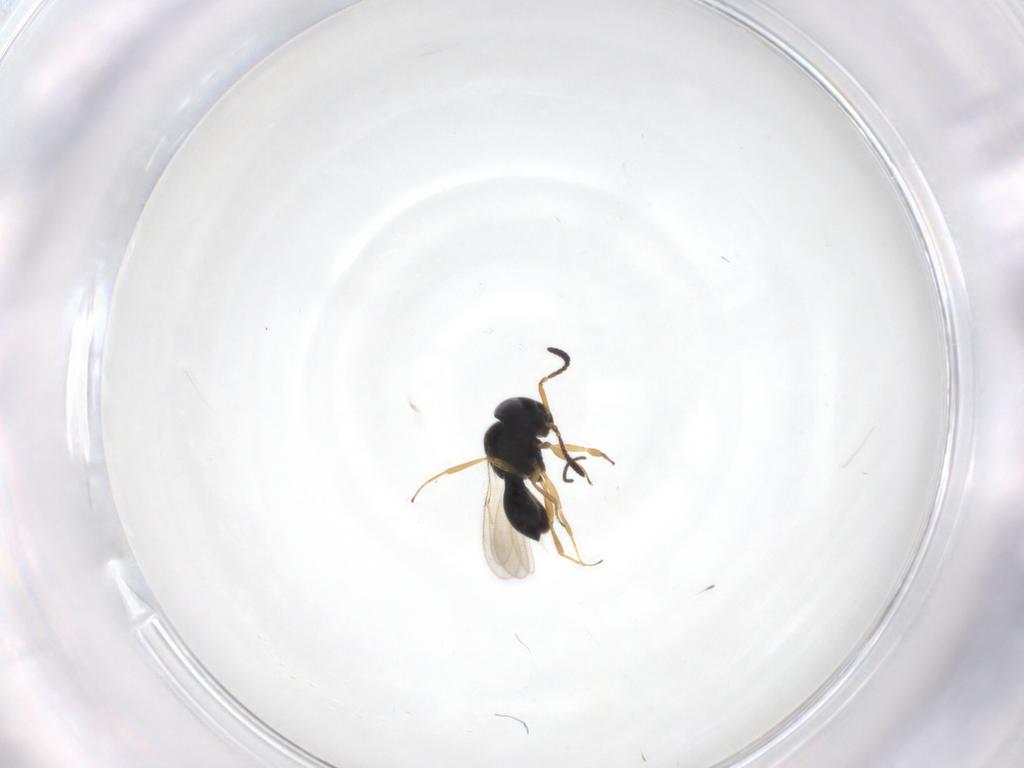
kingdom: Animalia
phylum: Arthropoda
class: Insecta
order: Hymenoptera
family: Scelionidae
